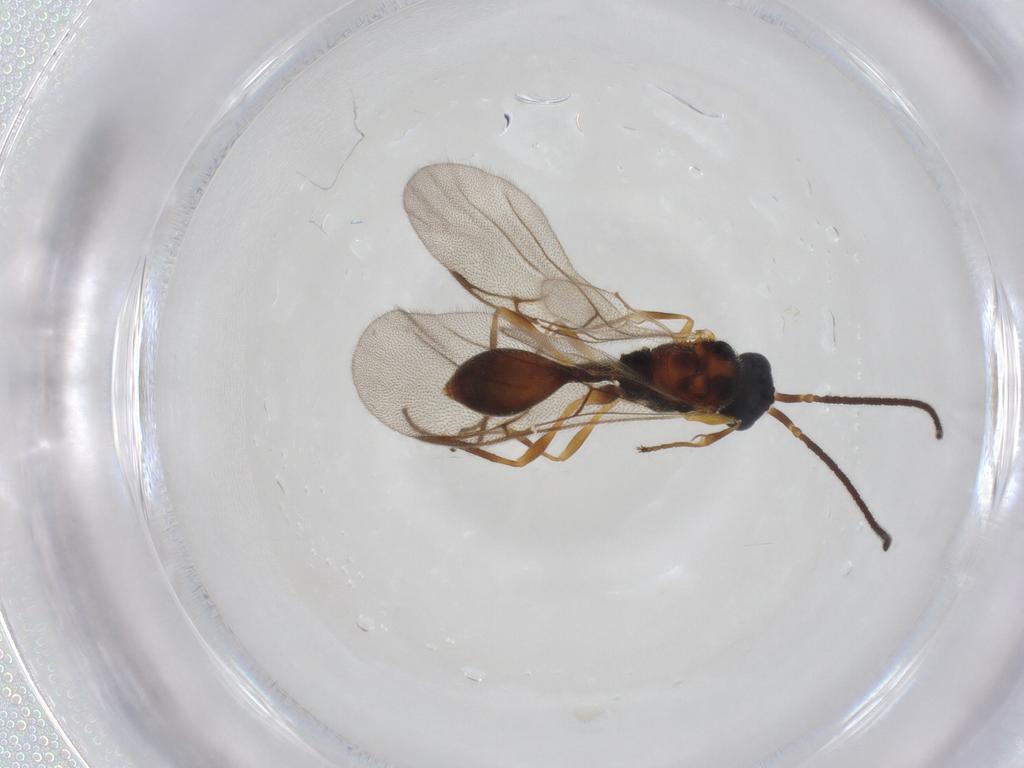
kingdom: Animalia
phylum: Arthropoda
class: Insecta
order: Hymenoptera
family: Diapriidae
